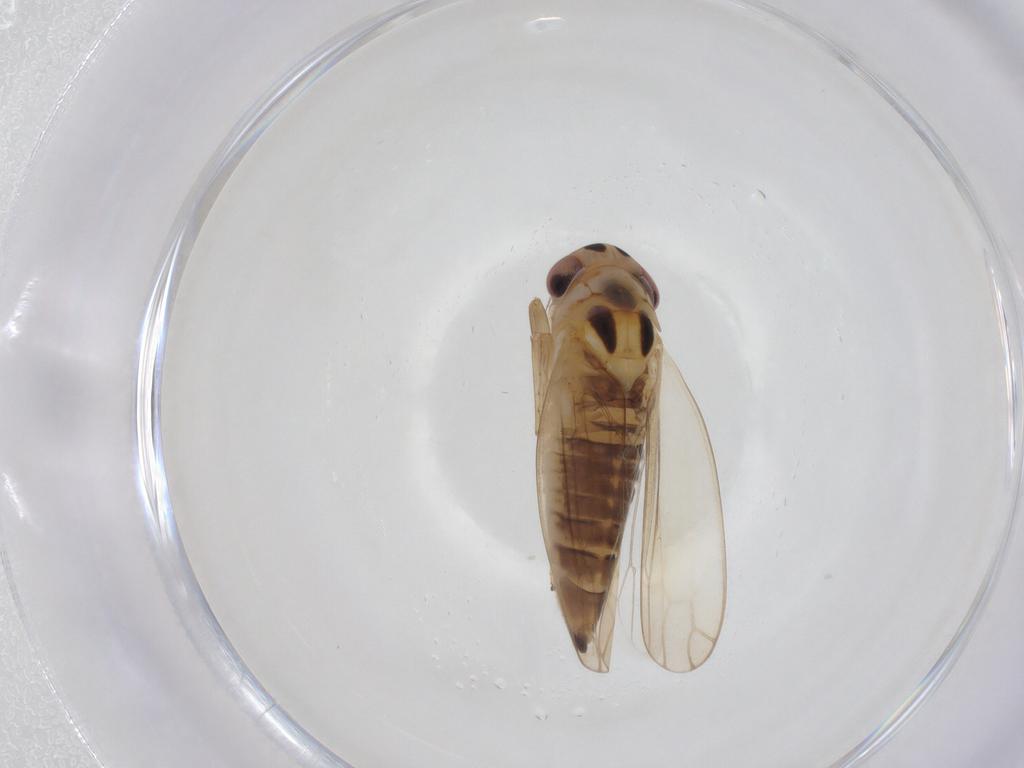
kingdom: Animalia
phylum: Arthropoda
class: Insecta
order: Hemiptera
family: Cicadellidae
